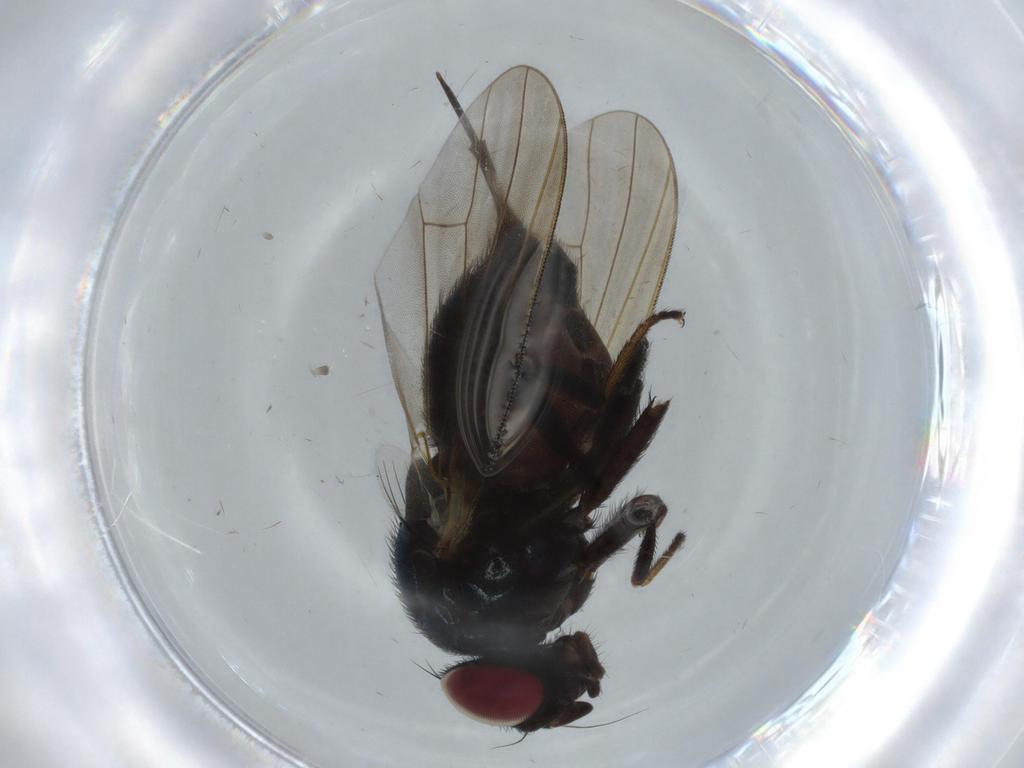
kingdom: Animalia
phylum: Arthropoda
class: Insecta
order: Diptera
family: Lonchaeidae
